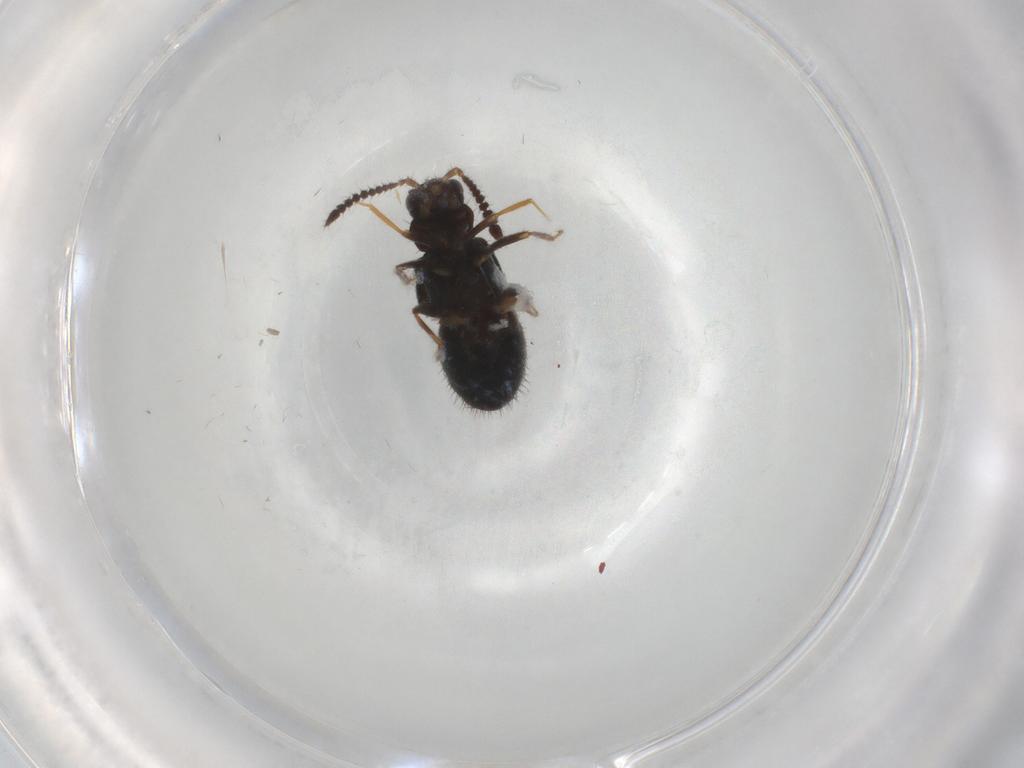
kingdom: Animalia
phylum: Arthropoda
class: Insecta
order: Coleoptera
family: Staphylinidae
